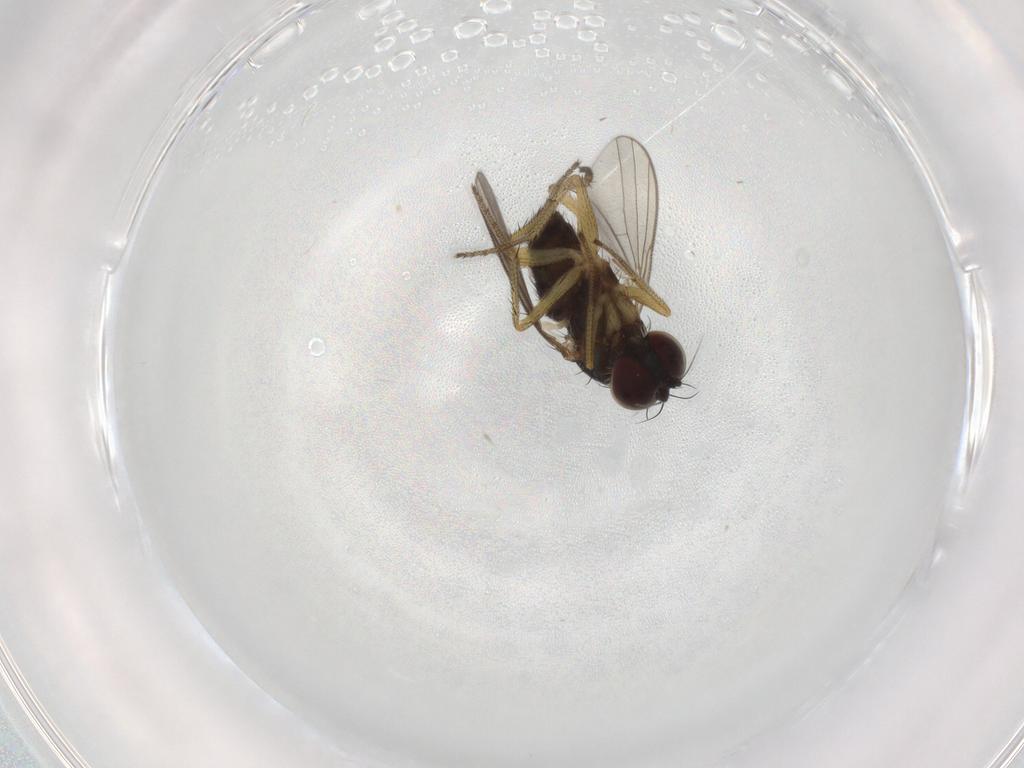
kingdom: Animalia
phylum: Arthropoda
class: Insecta
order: Diptera
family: Dolichopodidae
